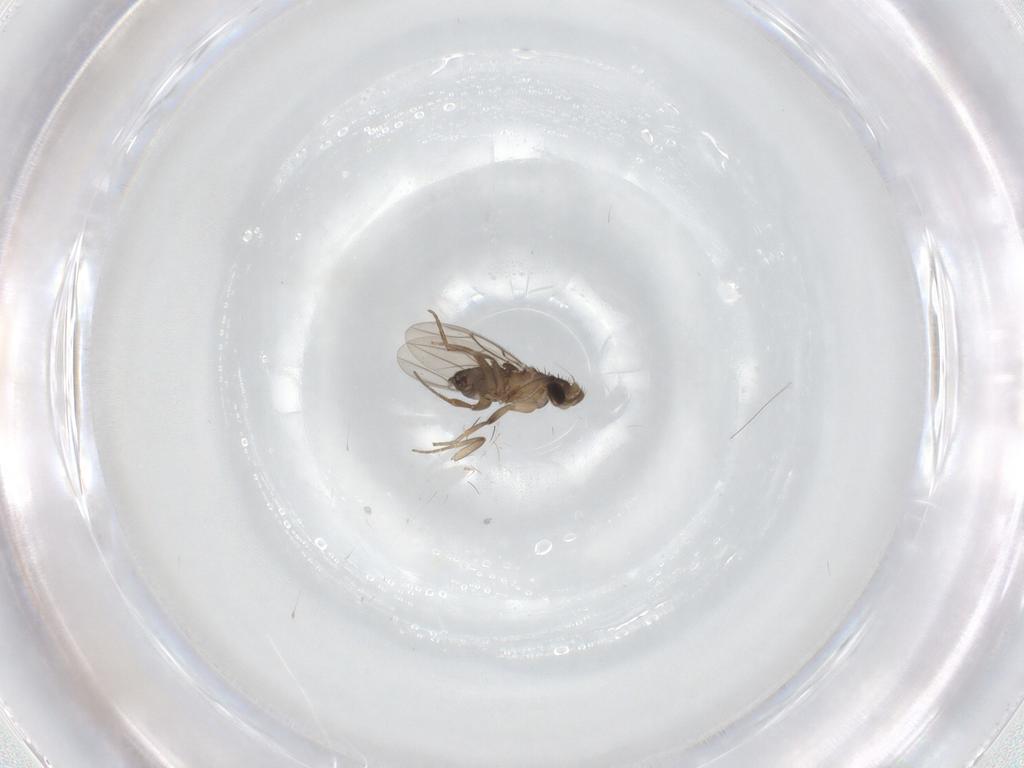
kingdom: Animalia
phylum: Arthropoda
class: Insecta
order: Diptera
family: Phoridae
